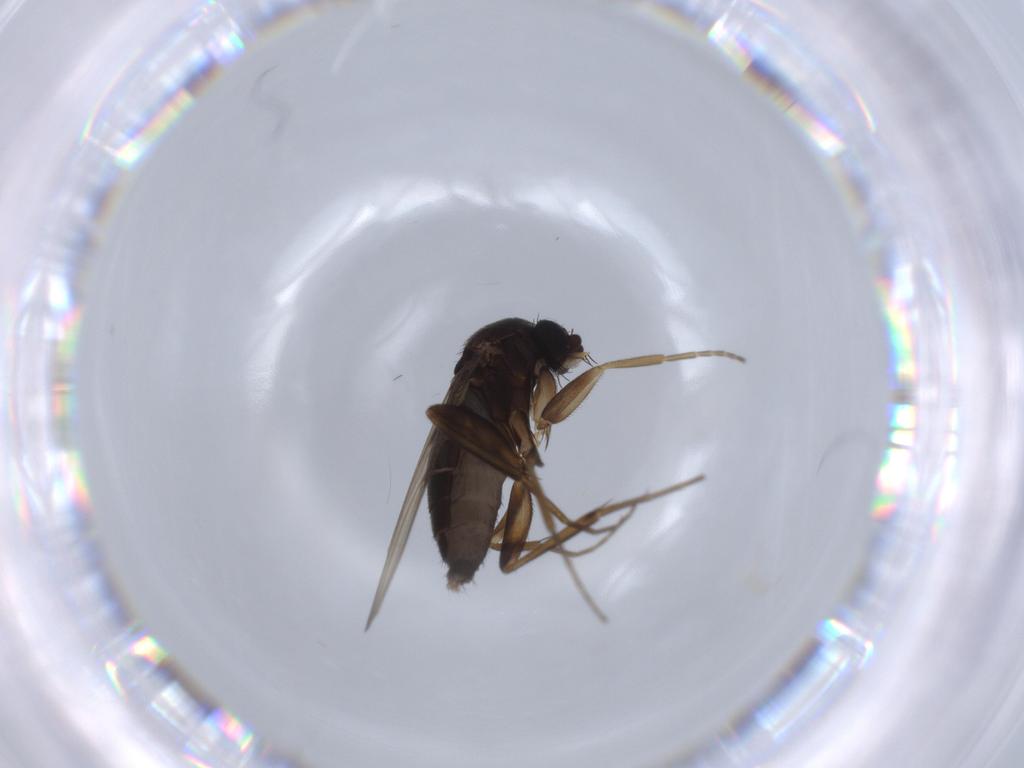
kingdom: Animalia
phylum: Arthropoda
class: Insecta
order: Diptera
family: Phoridae
